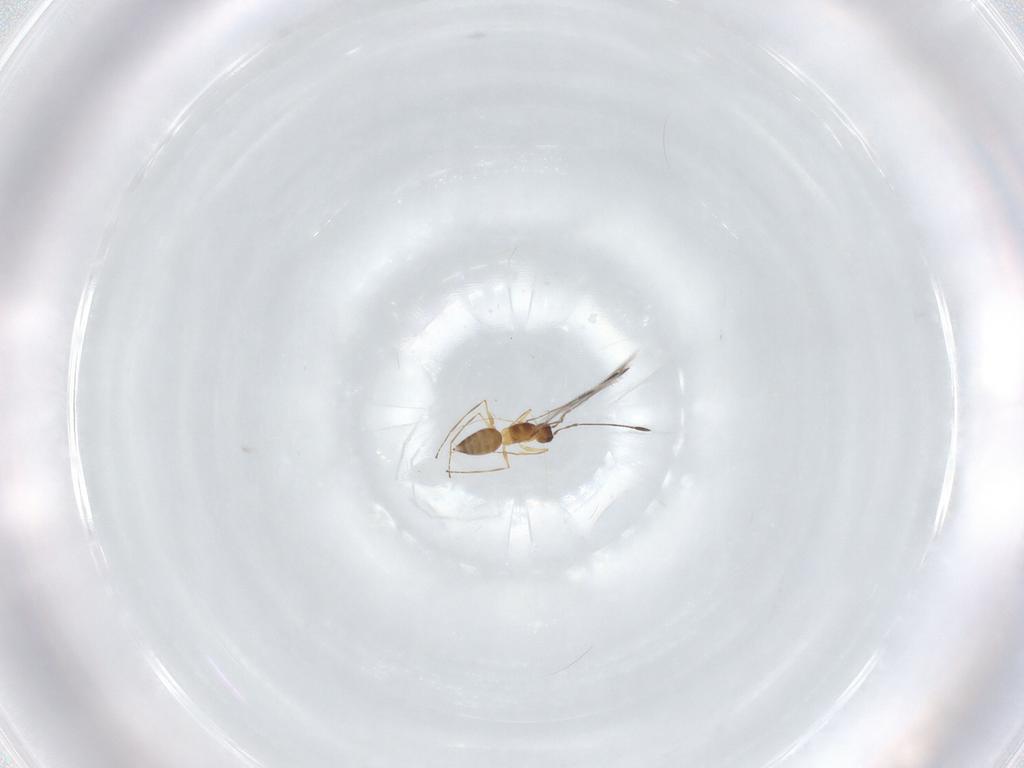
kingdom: Animalia
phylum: Arthropoda
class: Insecta
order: Hymenoptera
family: Mymaridae
